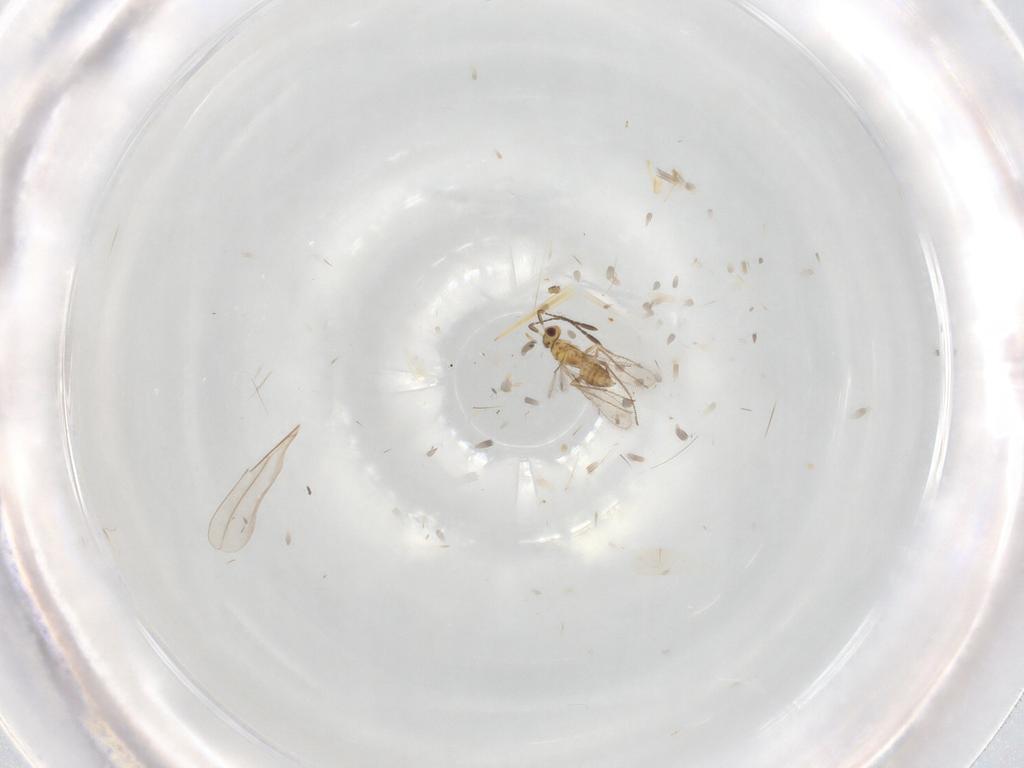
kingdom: Animalia
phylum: Arthropoda
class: Insecta
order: Hymenoptera
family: Mymaridae
